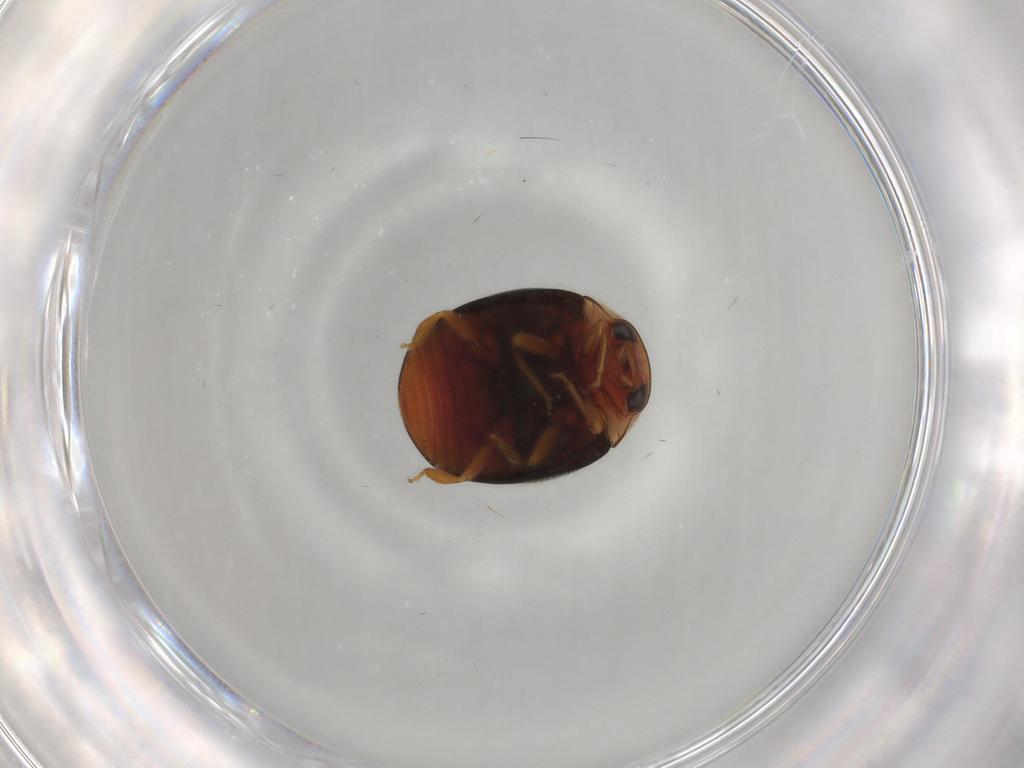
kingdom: Animalia
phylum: Arthropoda
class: Insecta
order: Coleoptera
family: Coccinellidae
